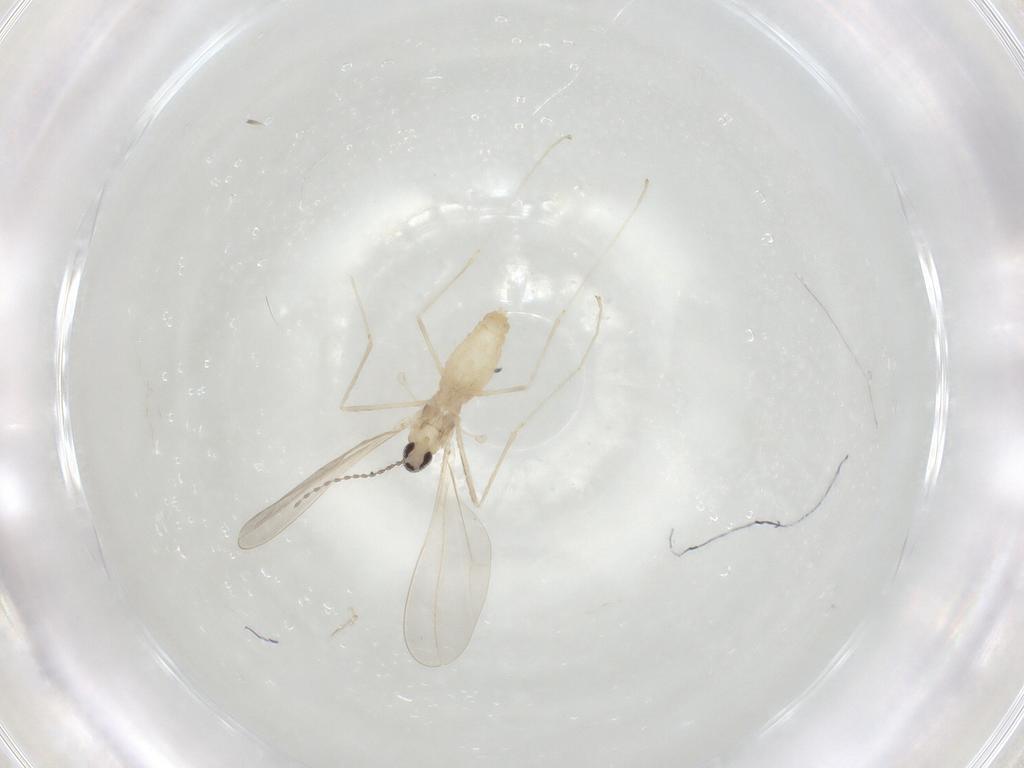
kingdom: Animalia
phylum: Arthropoda
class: Insecta
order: Diptera
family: Cecidomyiidae
